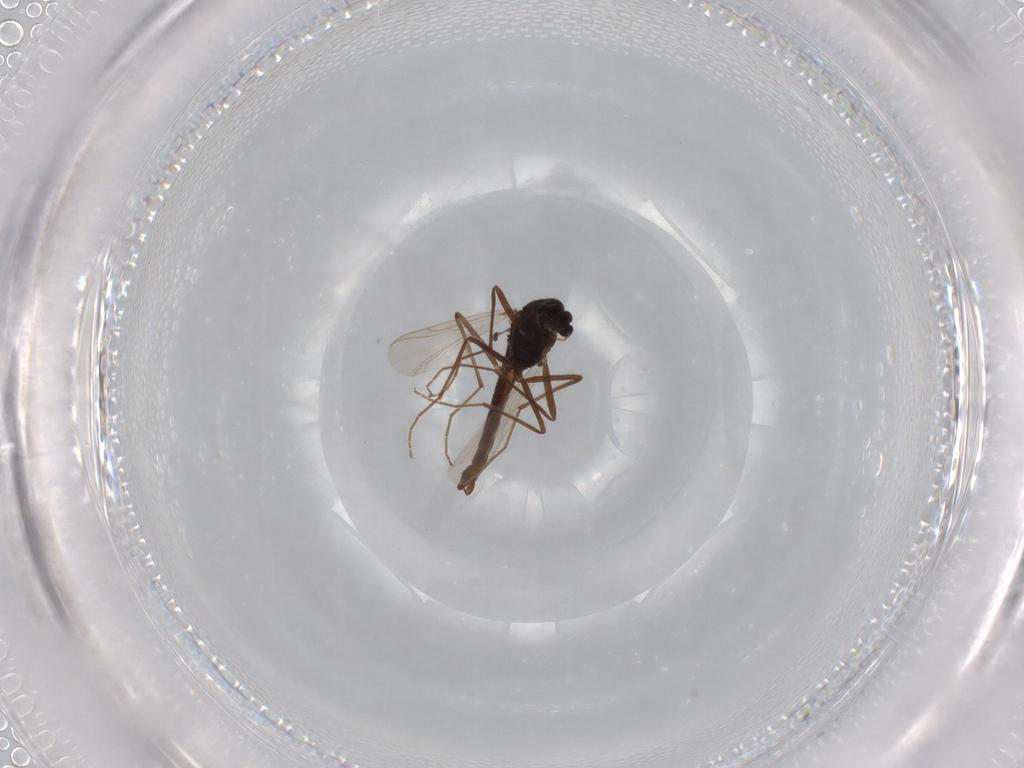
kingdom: Animalia
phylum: Arthropoda
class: Insecta
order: Diptera
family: Chironomidae
